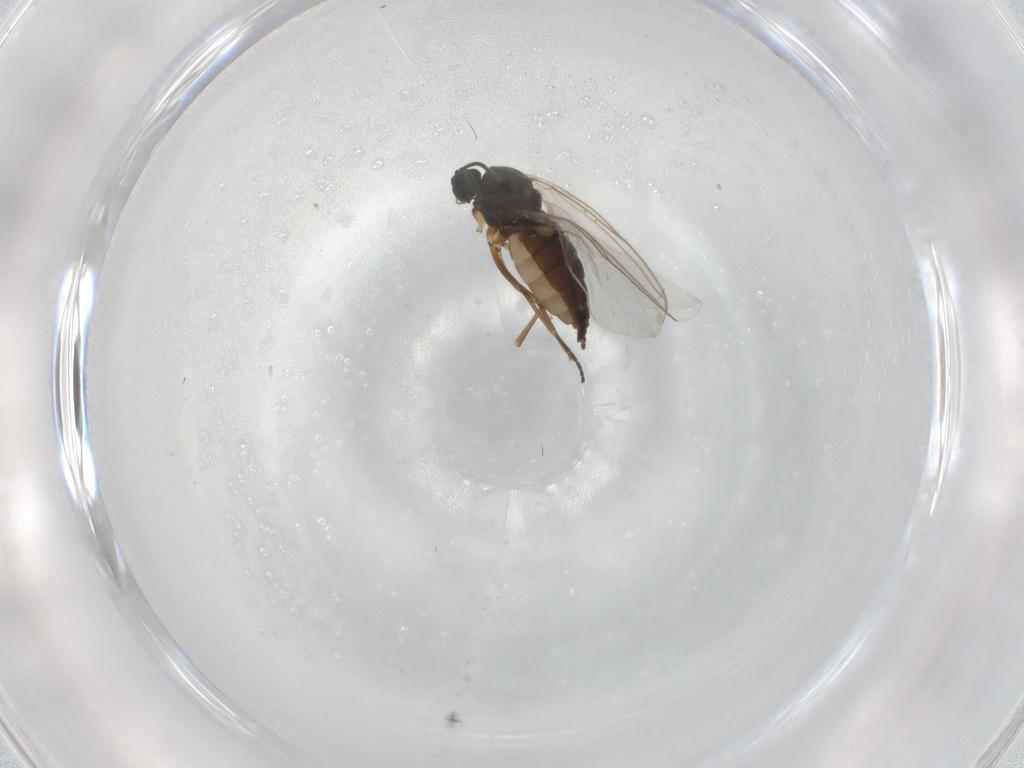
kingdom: Animalia
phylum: Arthropoda
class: Insecta
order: Diptera
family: Sciaridae
